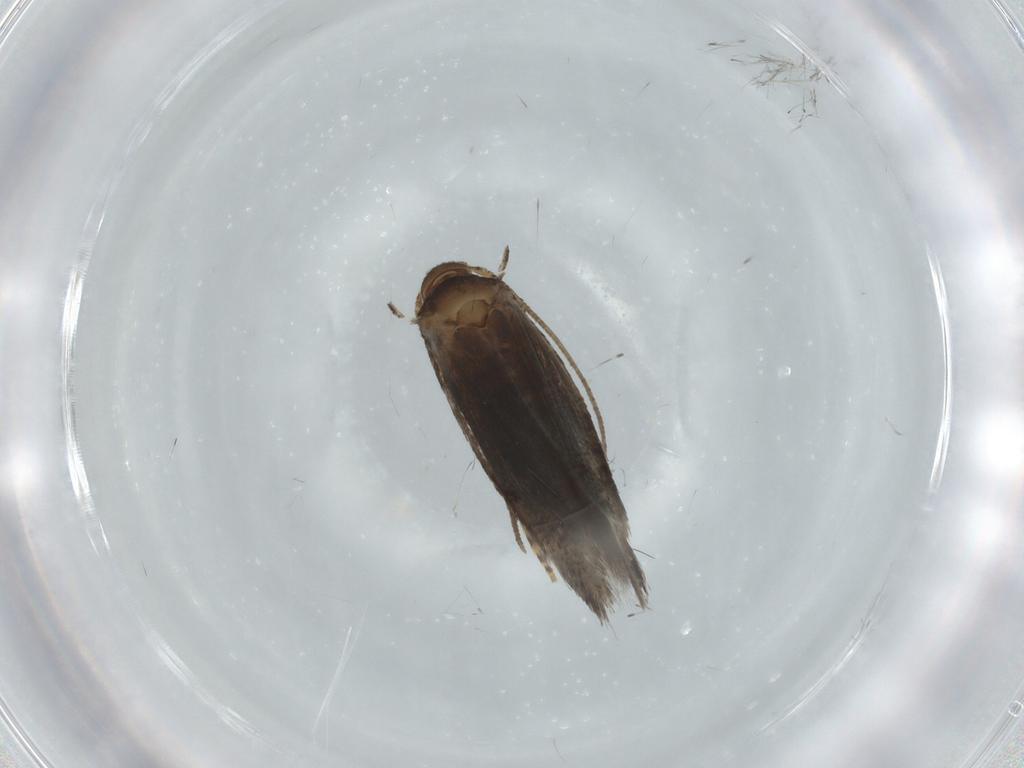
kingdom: Animalia
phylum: Arthropoda
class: Insecta
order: Lepidoptera
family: Elachistidae
